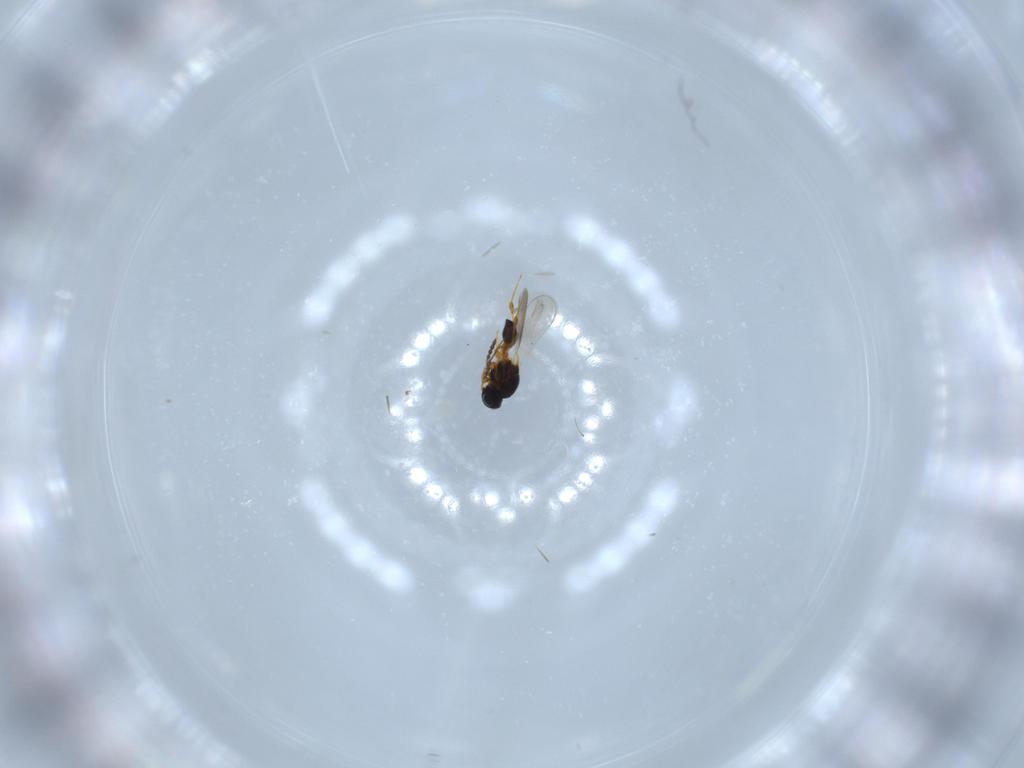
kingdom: Animalia
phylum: Arthropoda
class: Insecta
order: Hymenoptera
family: Platygastridae
